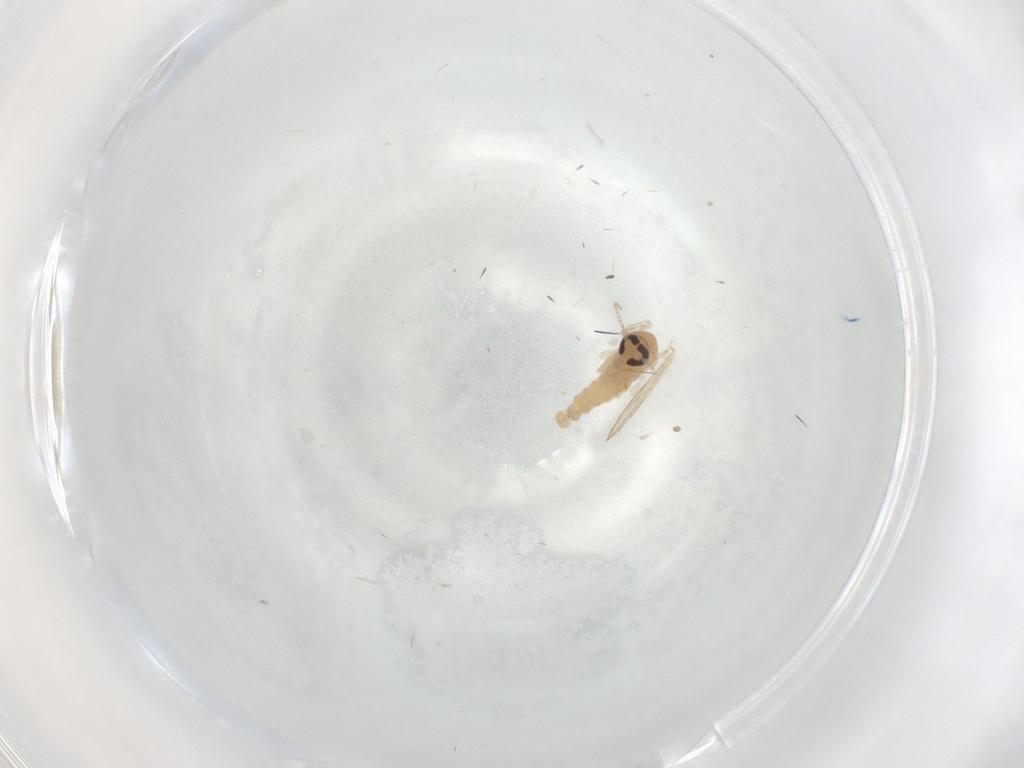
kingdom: Animalia
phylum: Arthropoda
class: Insecta
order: Diptera
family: Psychodidae
